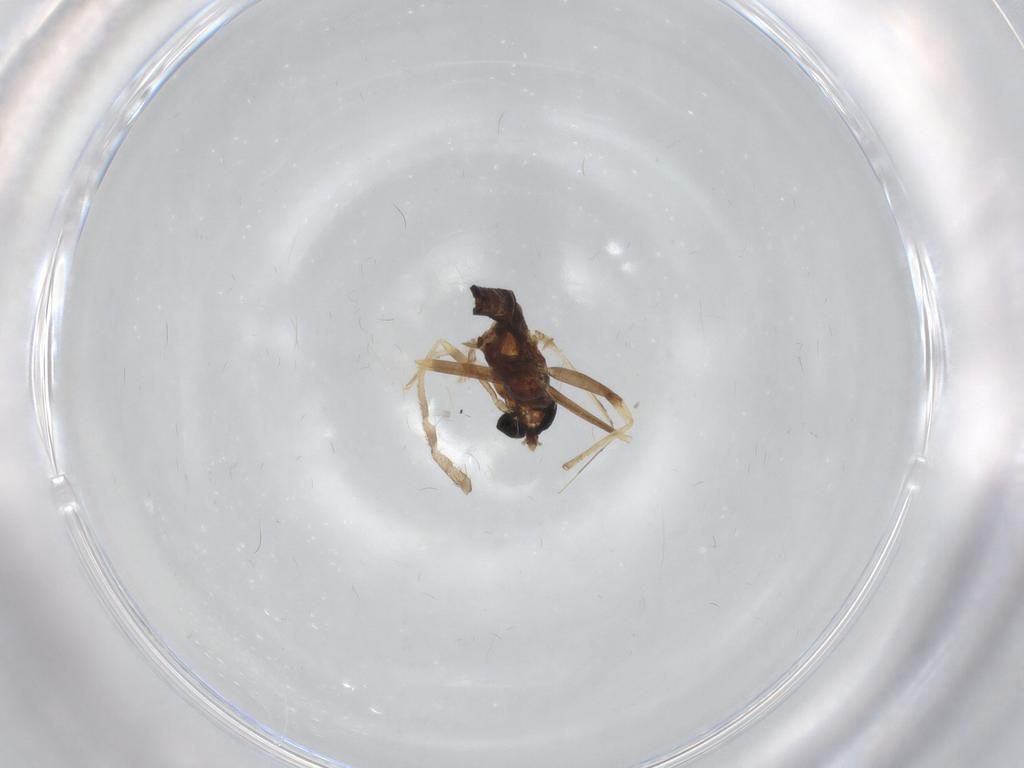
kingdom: Animalia
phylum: Arthropoda
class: Insecta
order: Diptera
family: Chironomidae
